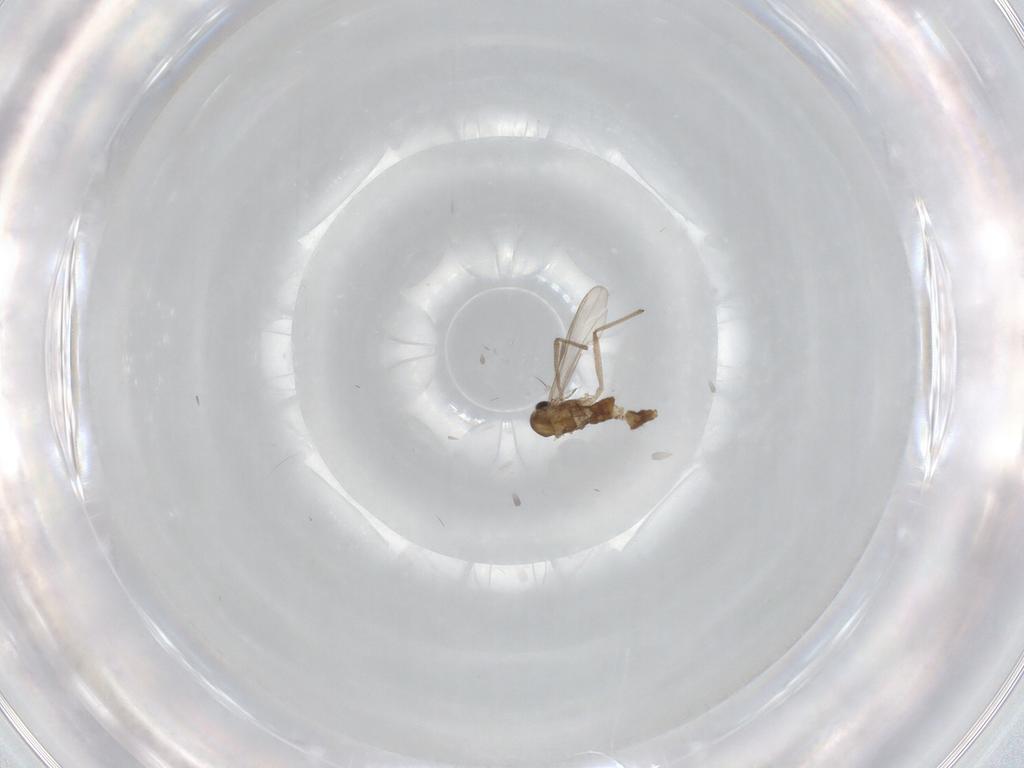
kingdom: Animalia
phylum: Arthropoda
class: Insecta
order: Diptera
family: Chironomidae
